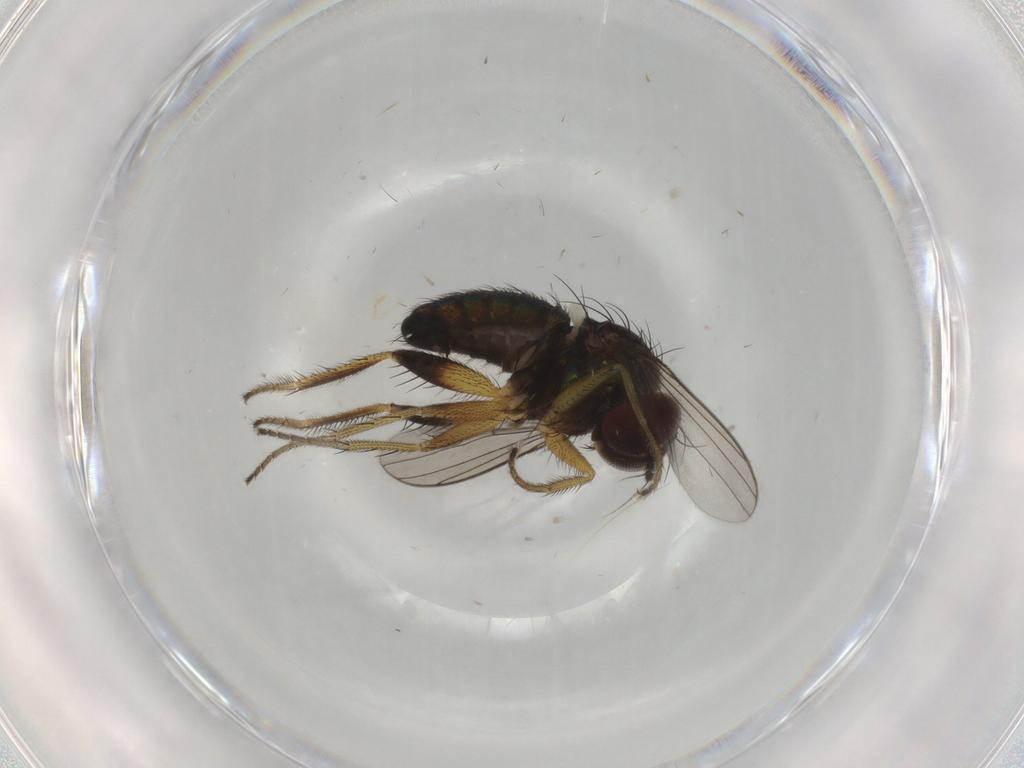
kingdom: Animalia
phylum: Arthropoda
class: Insecta
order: Diptera
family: Dolichopodidae
